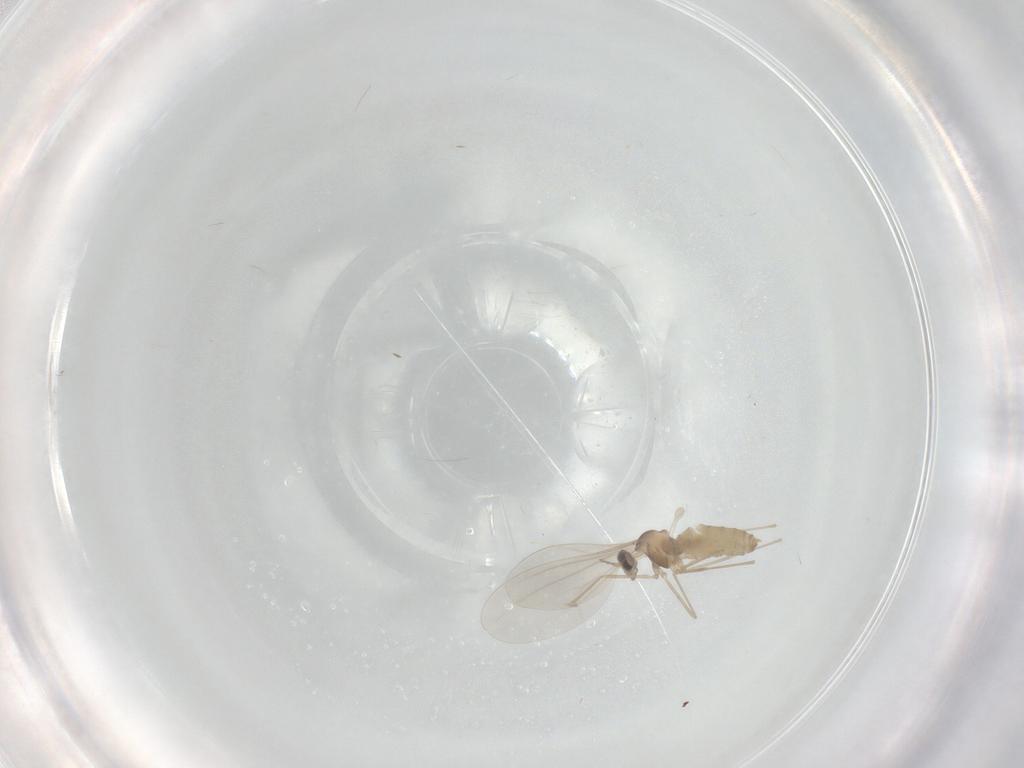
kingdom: Animalia
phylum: Arthropoda
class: Insecta
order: Diptera
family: Cecidomyiidae
